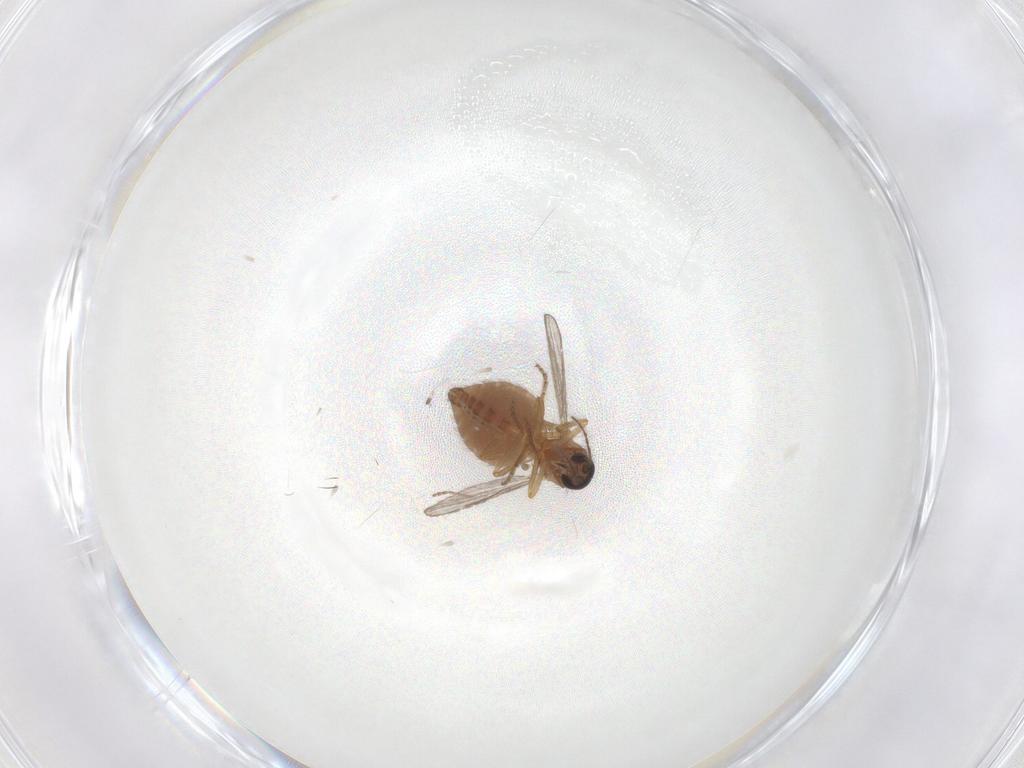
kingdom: Animalia
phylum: Arthropoda
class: Insecta
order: Diptera
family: Ceratopogonidae
